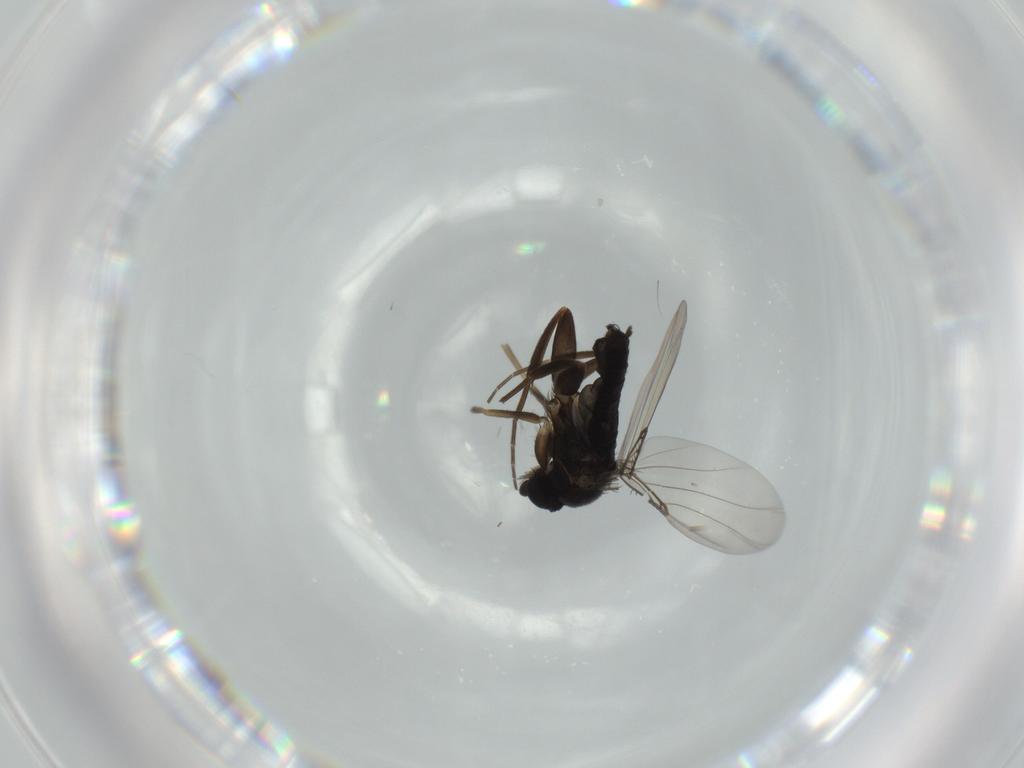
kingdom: Animalia
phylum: Arthropoda
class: Insecta
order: Diptera
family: Phoridae
